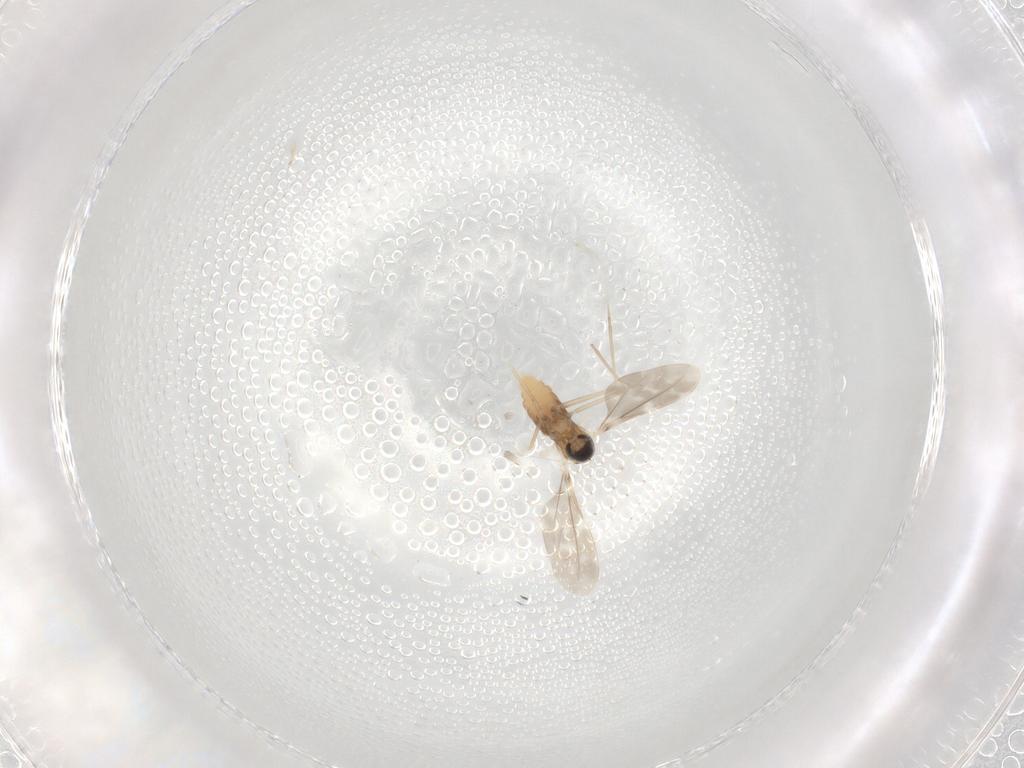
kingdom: Animalia
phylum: Arthropoda
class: Insecta
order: Diptera
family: Cecidomyiidae
